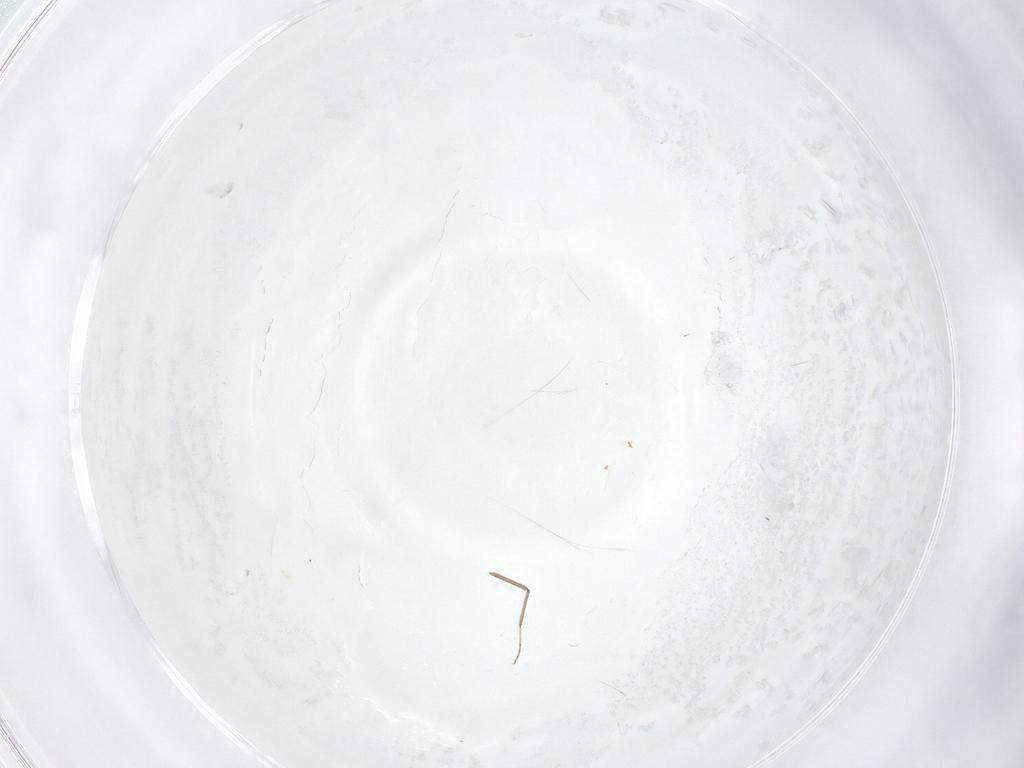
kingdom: Animalia
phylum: Arthropoda
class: Insecta
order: Diptera
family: Ceratopogonidae
